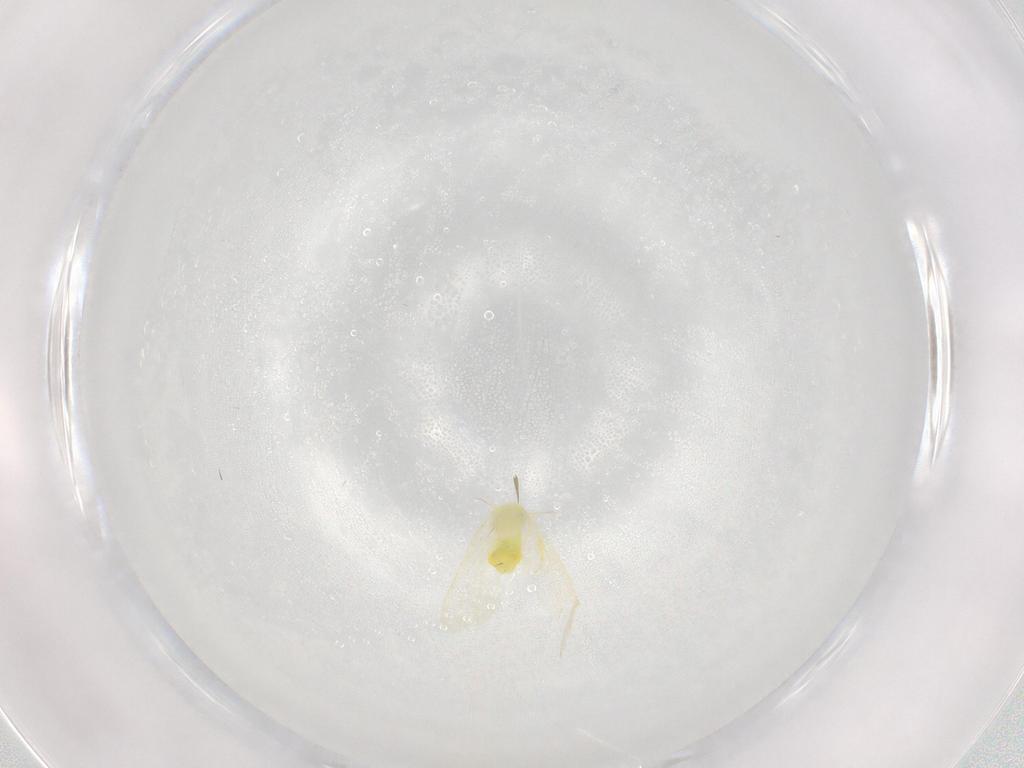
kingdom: Animalia
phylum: Arthropoda
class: Insecta
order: Hemiptera
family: Aleyrodidae
